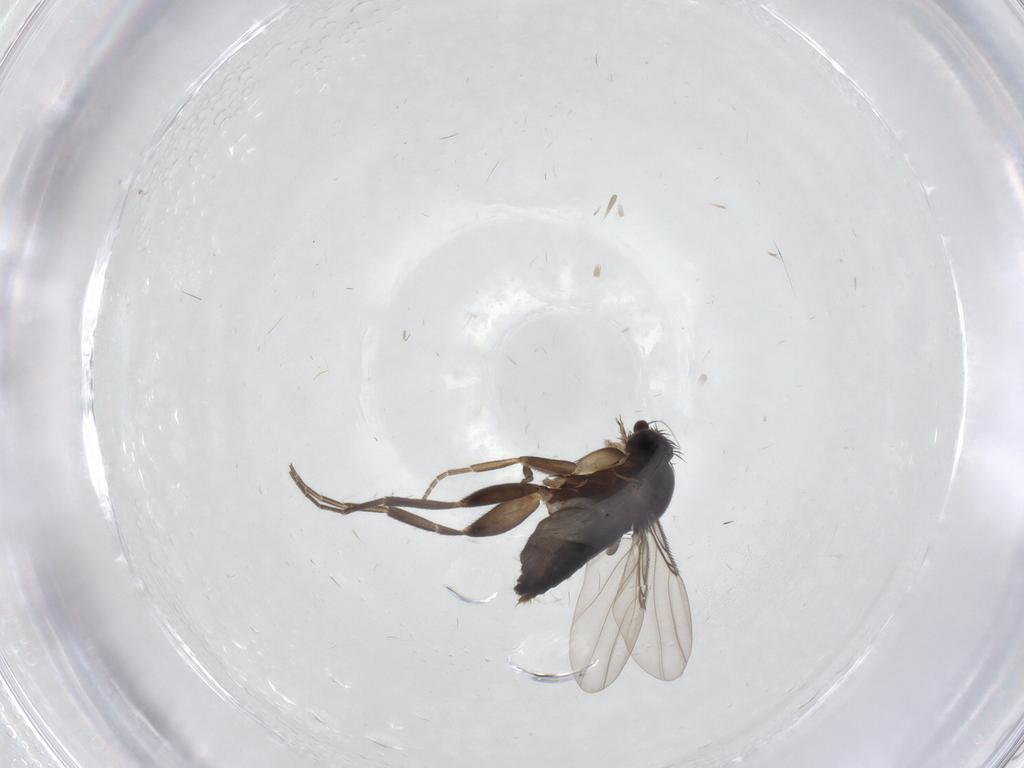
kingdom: Animalia
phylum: Arthropoda
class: Insecta
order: Diptera
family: Phoridae
